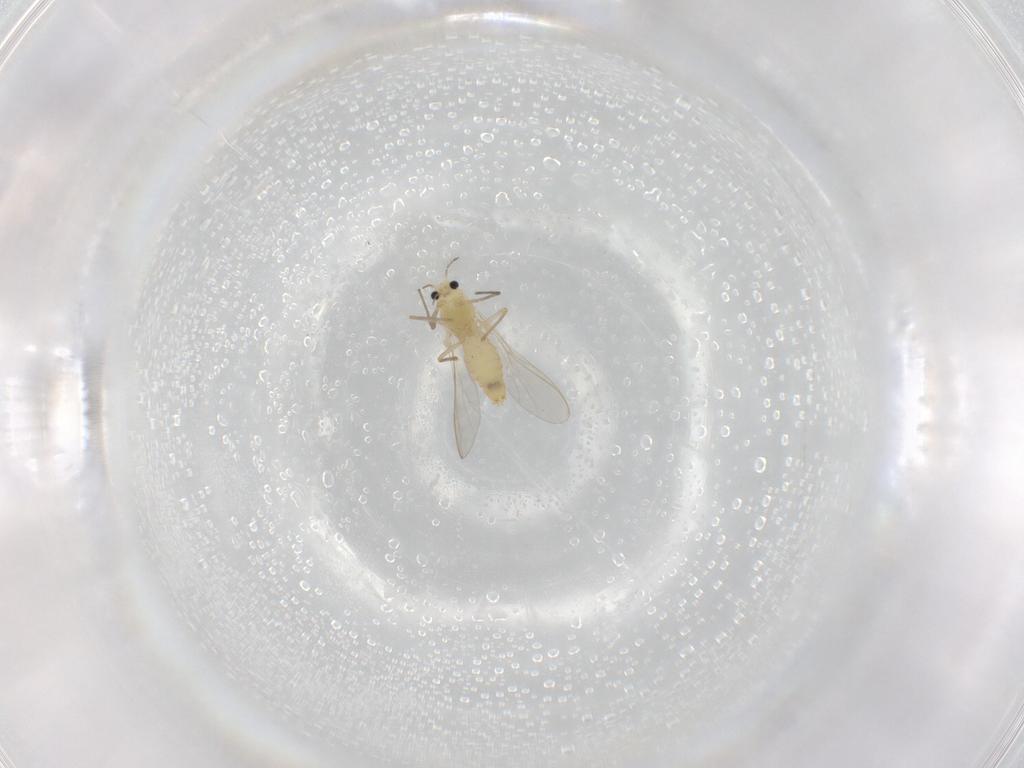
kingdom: Animalia
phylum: Arthropoda
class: Insecta
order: Diptera
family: Chironomidae
